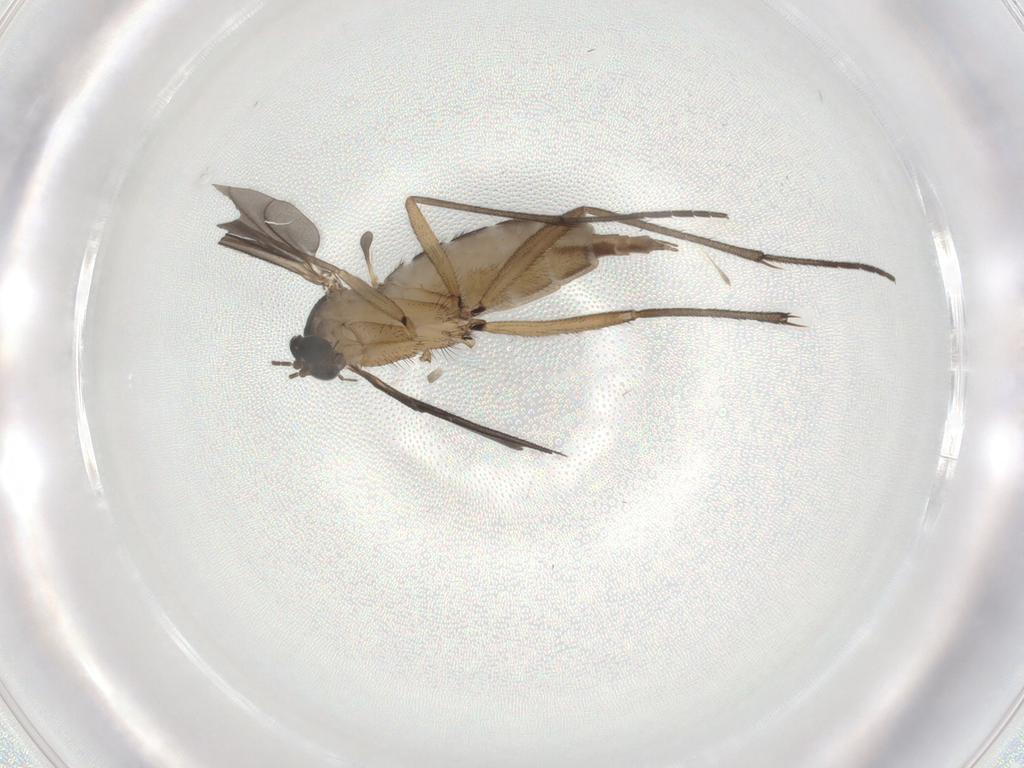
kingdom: Animalia
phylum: Arthropoda
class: Insecta
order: Diptera
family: Sciaridae
